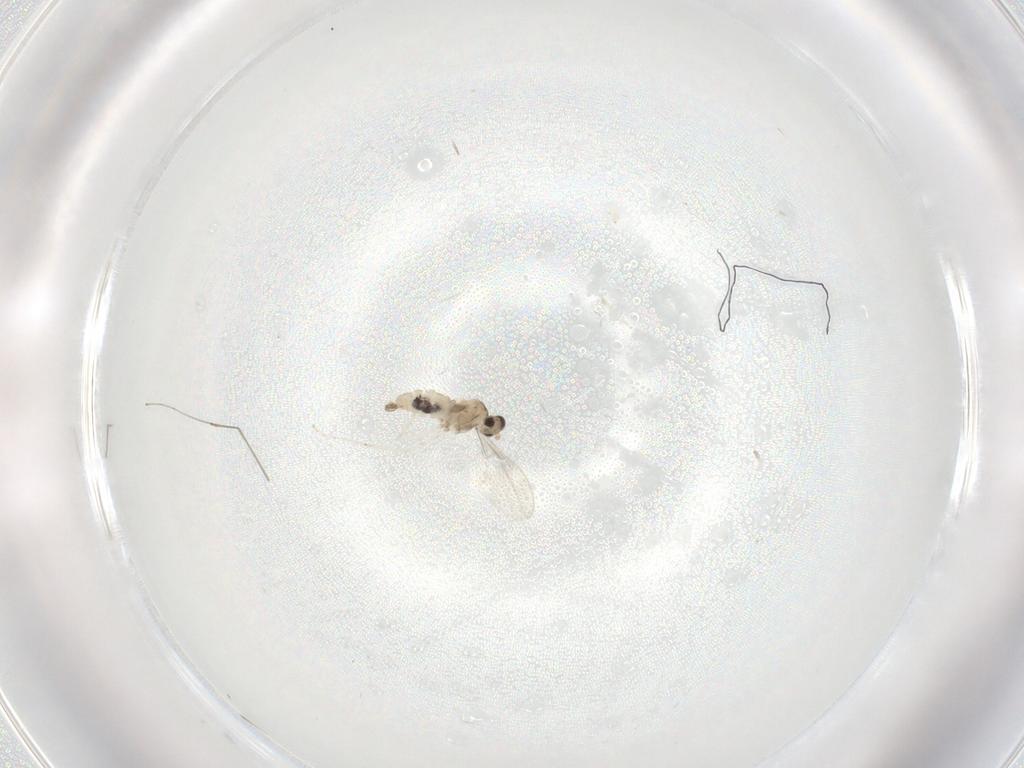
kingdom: Animalia
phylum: Arthropoda
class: Insecta
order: Diptera
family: Cecidomyiidae
